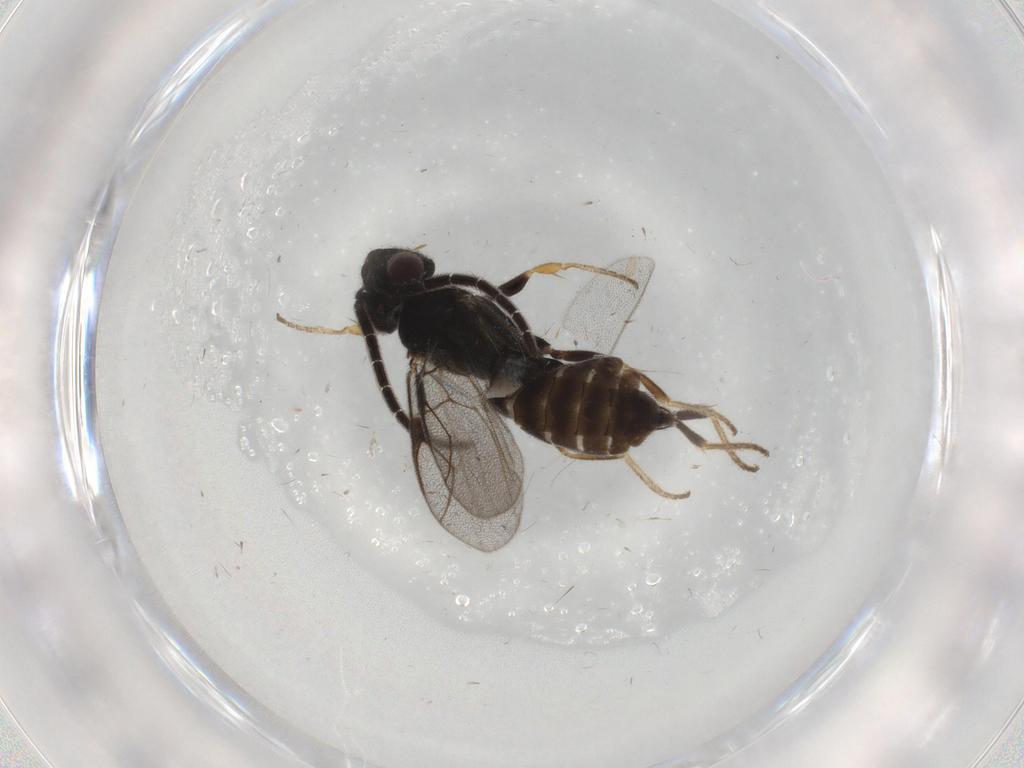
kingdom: Animalia
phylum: Arthropoda
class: Insecta
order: Hymenoptera
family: Dryinidae
